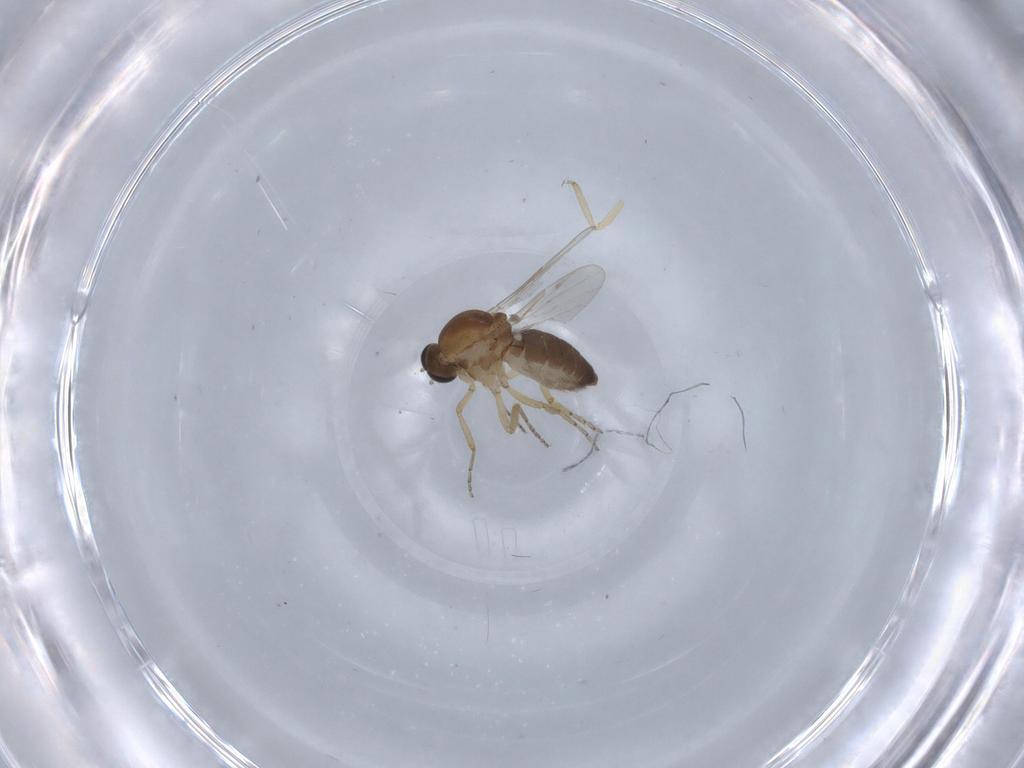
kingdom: Animalia
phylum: Arthropoda
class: Insecta
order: Diptera
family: Ceratopogonidae
